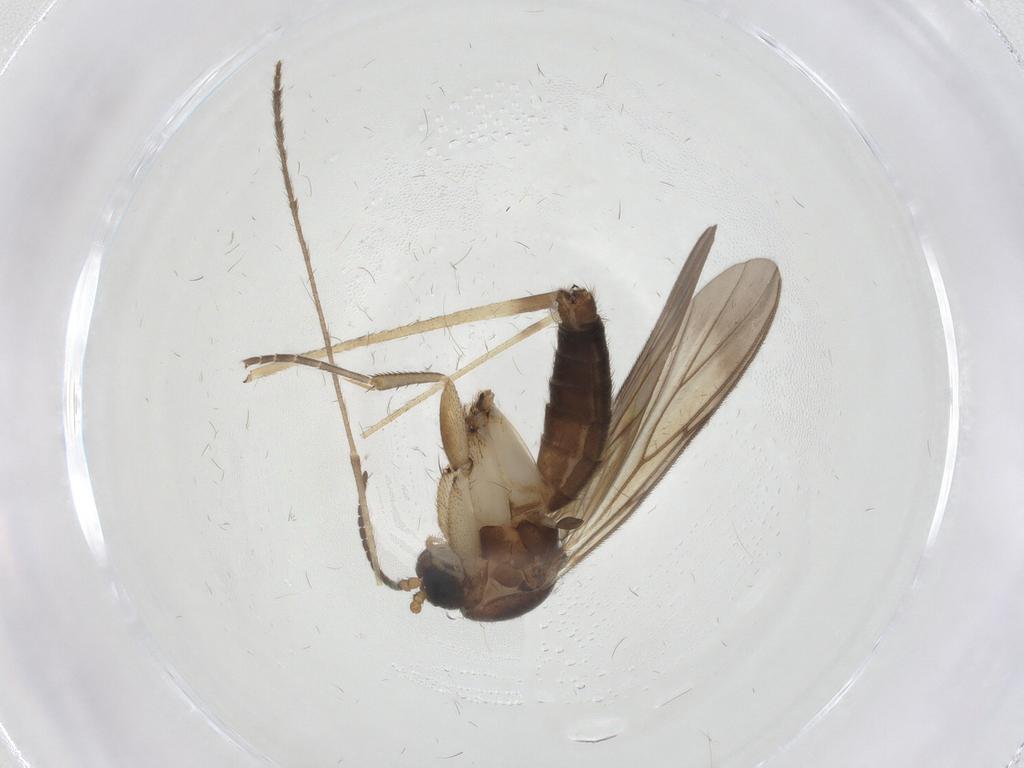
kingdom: Animalia
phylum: Arthropoda
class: Insecta
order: Diptera
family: Mycetophilidae
